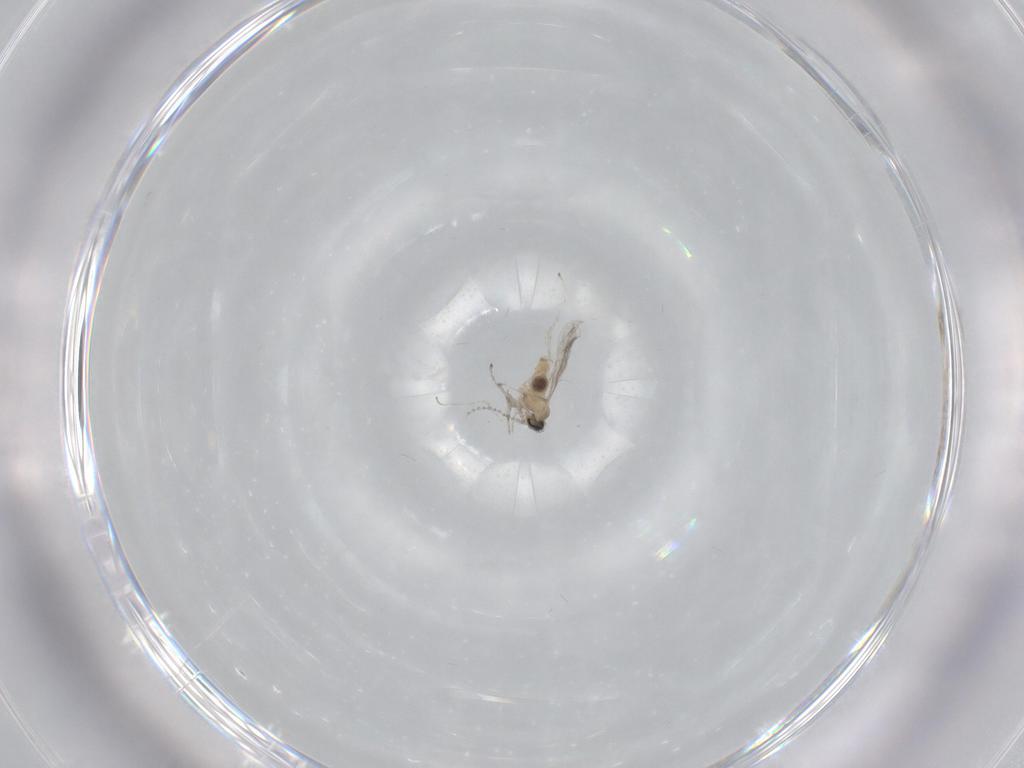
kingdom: Animalia
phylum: Arthropoda
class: Insecta
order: Diptera
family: Cecidomyiidae
